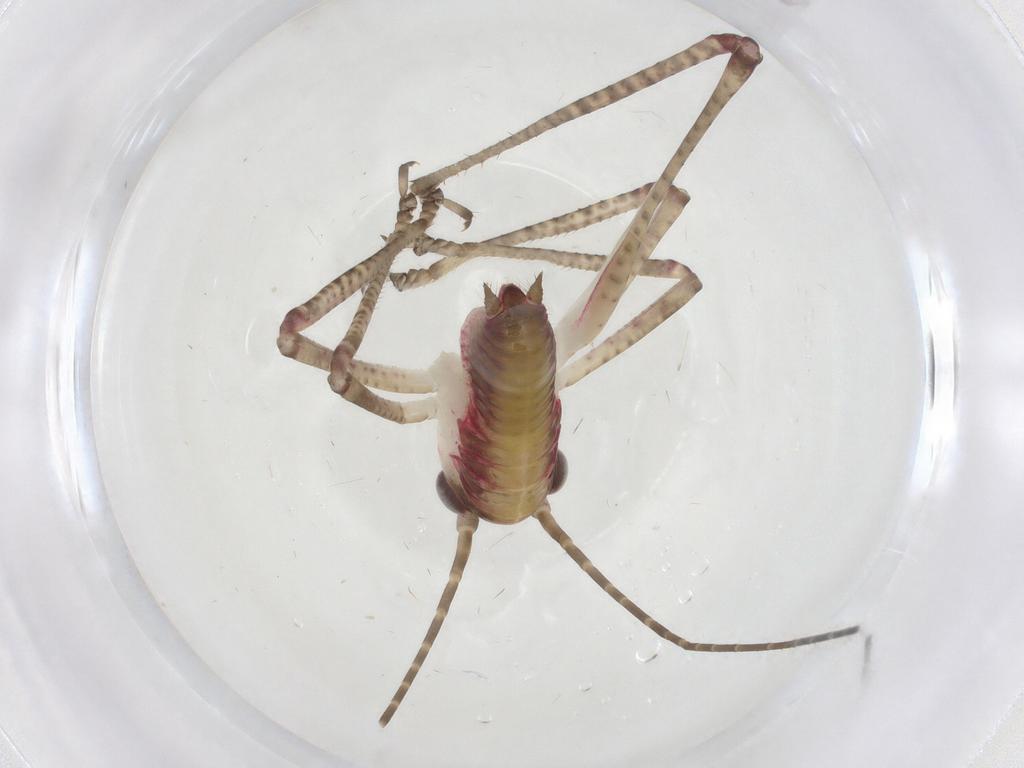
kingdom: Animalia
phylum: Arthropoda
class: Insecta
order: Orthoptera
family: Tettigoniidae
